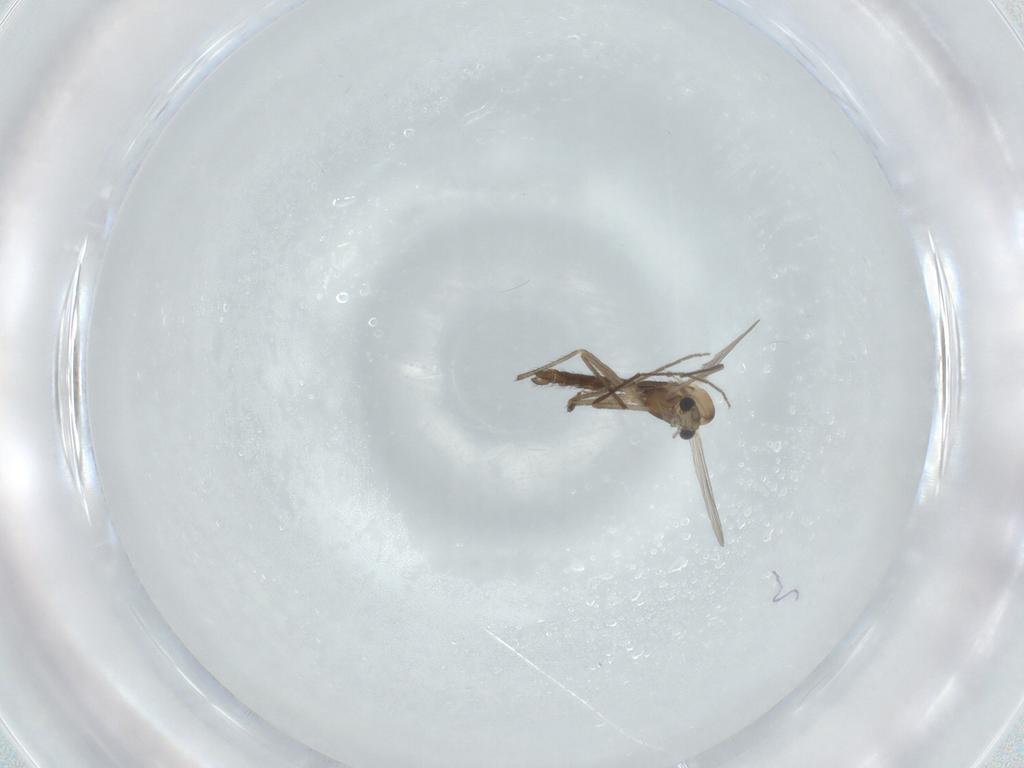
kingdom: Animalia
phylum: Arthropoda
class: Insecta
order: Diptera
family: Chironomidae
